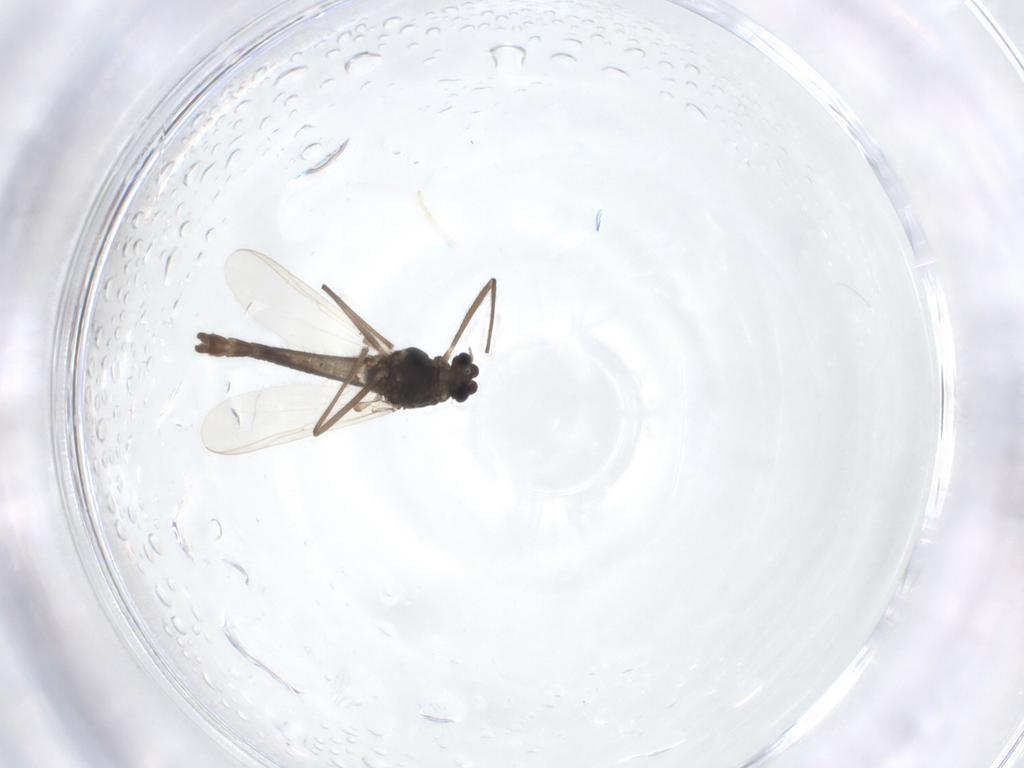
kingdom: Animalia
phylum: Arthropoda
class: Insecta
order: Diptera
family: Chironomidae
